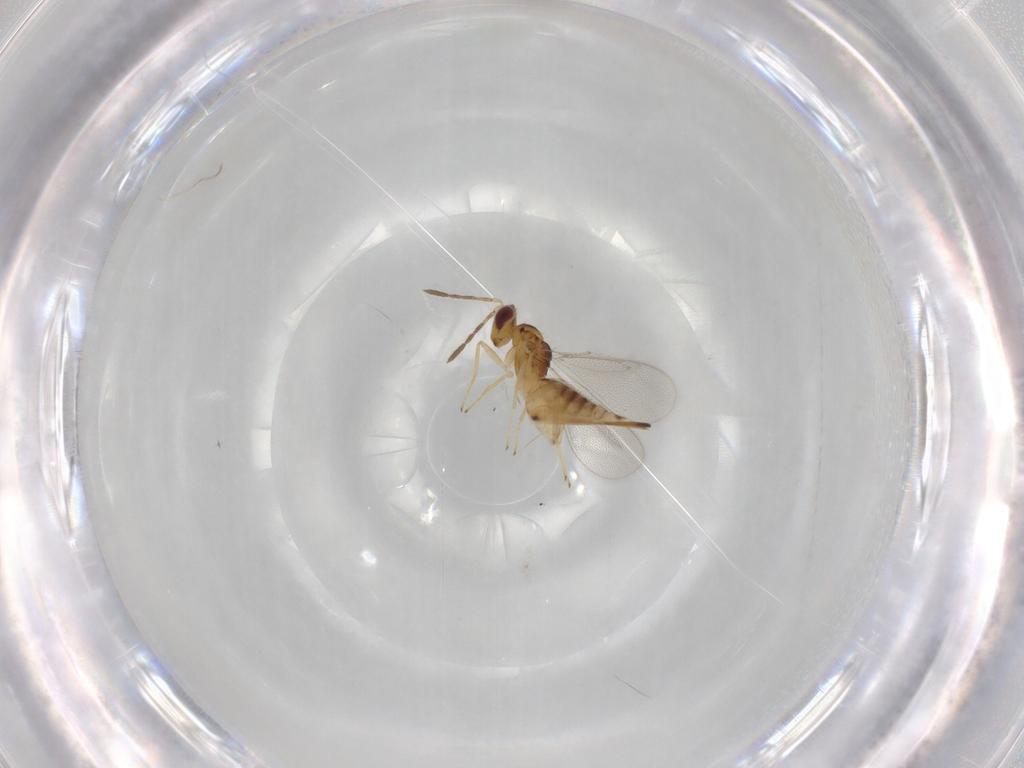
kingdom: Animalia
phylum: Arthropoda
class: Insecta
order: Hymenoptera
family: Eulophidae
